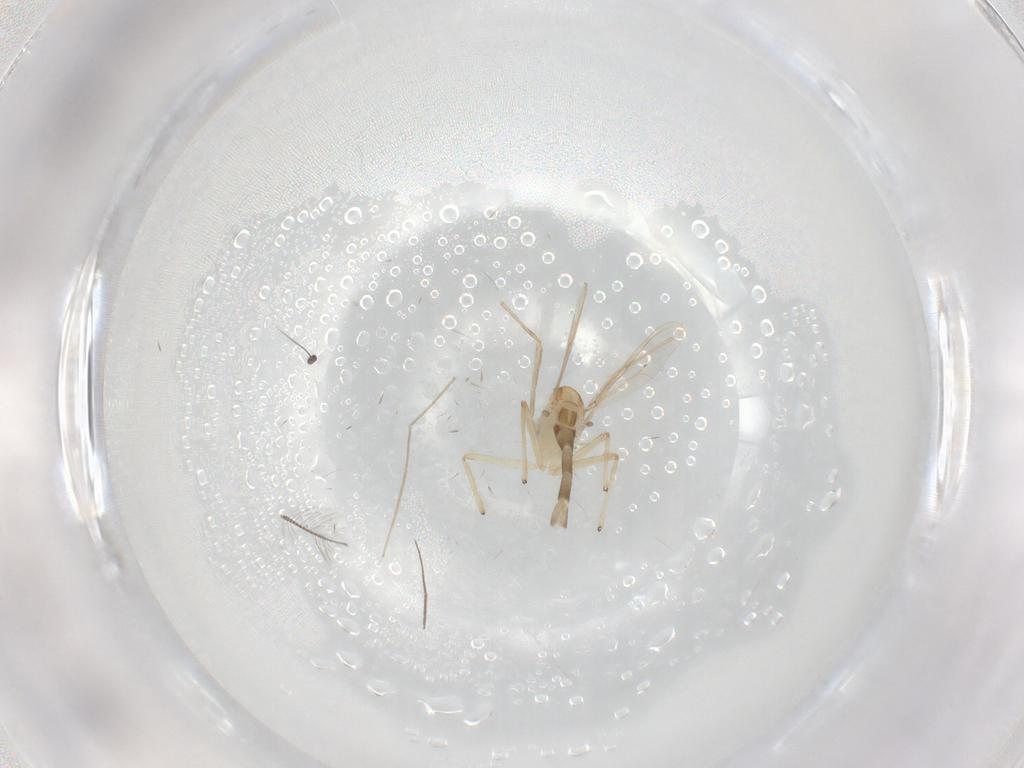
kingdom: Animalia
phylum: Arthropoda
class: Insecta
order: Diptera
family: Chironomidae
